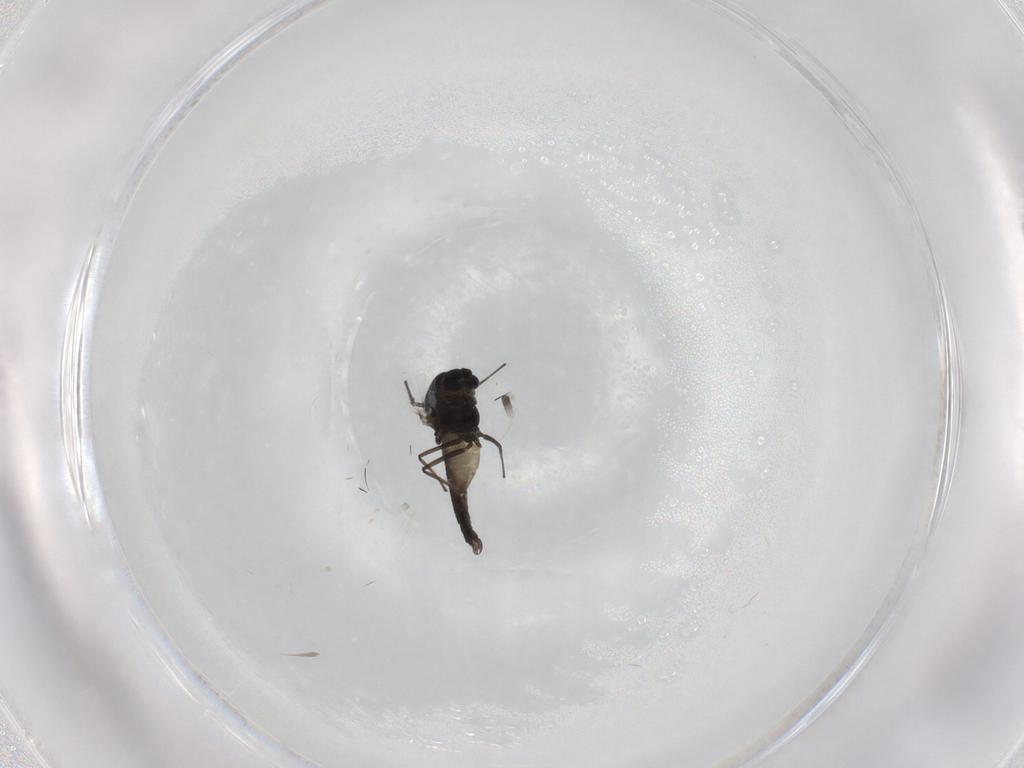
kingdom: Animalia
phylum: Arthropoda
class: Insecta
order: Diptera
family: Chironomidae
